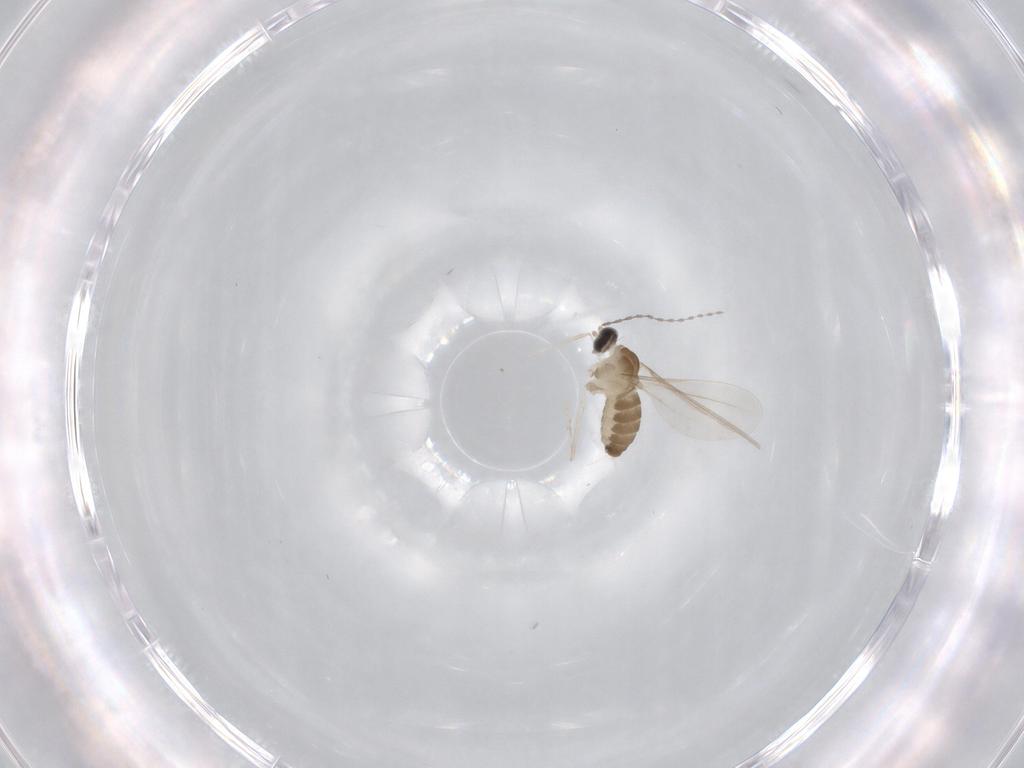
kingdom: Animalia
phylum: Arthropoda
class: Insecta
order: Diptera
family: Cecidomyiidae
